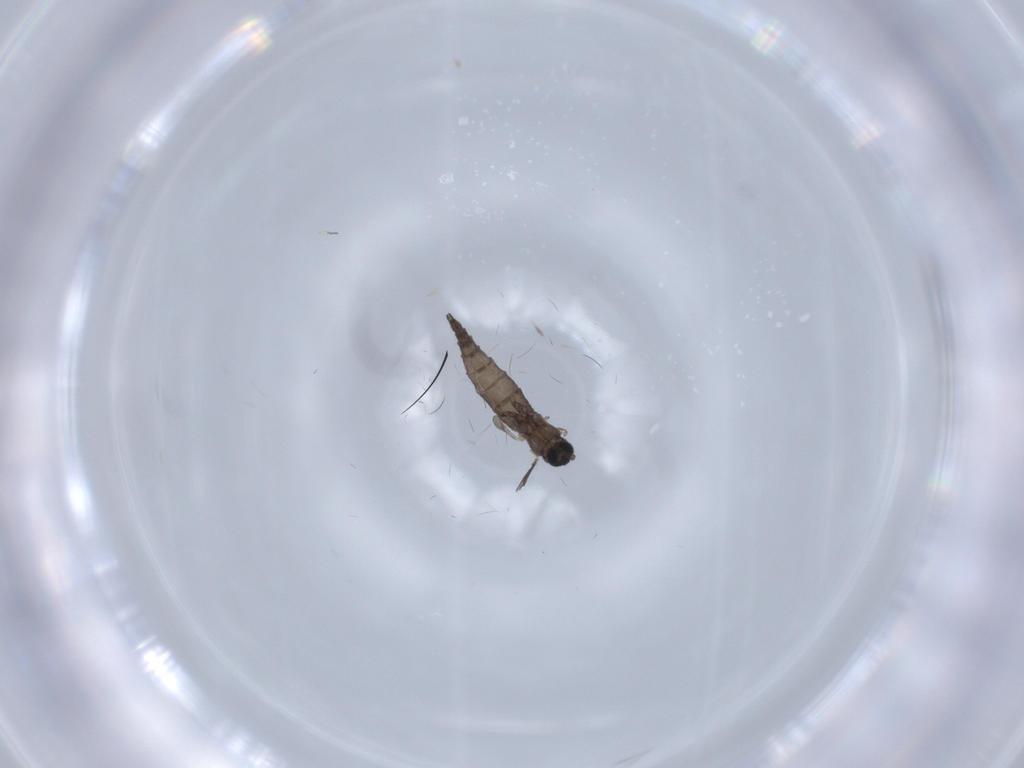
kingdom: Animalia
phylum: Arthropoda
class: Insecta
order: Diptera
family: Sciaridae
